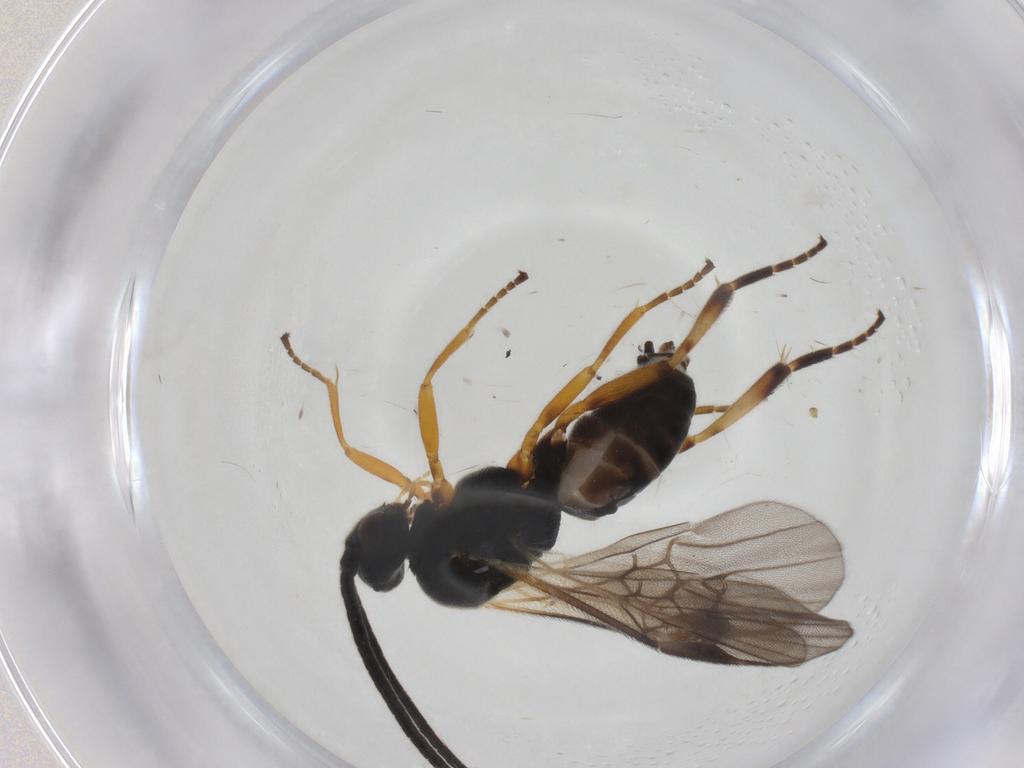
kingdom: Animalia
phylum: Arthropoda
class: Insecta
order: Hymenoptera
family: Braconidae
